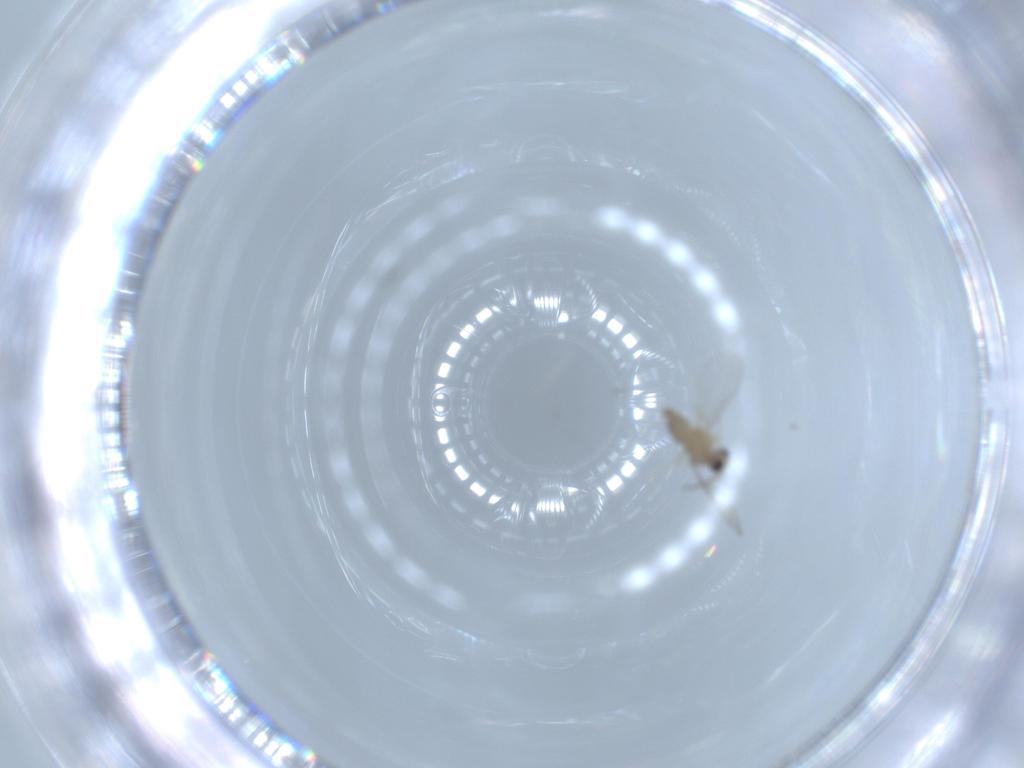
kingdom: Animalia
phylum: Arthropoda
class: Insecta
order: Diptera
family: Cecidomyiidae
